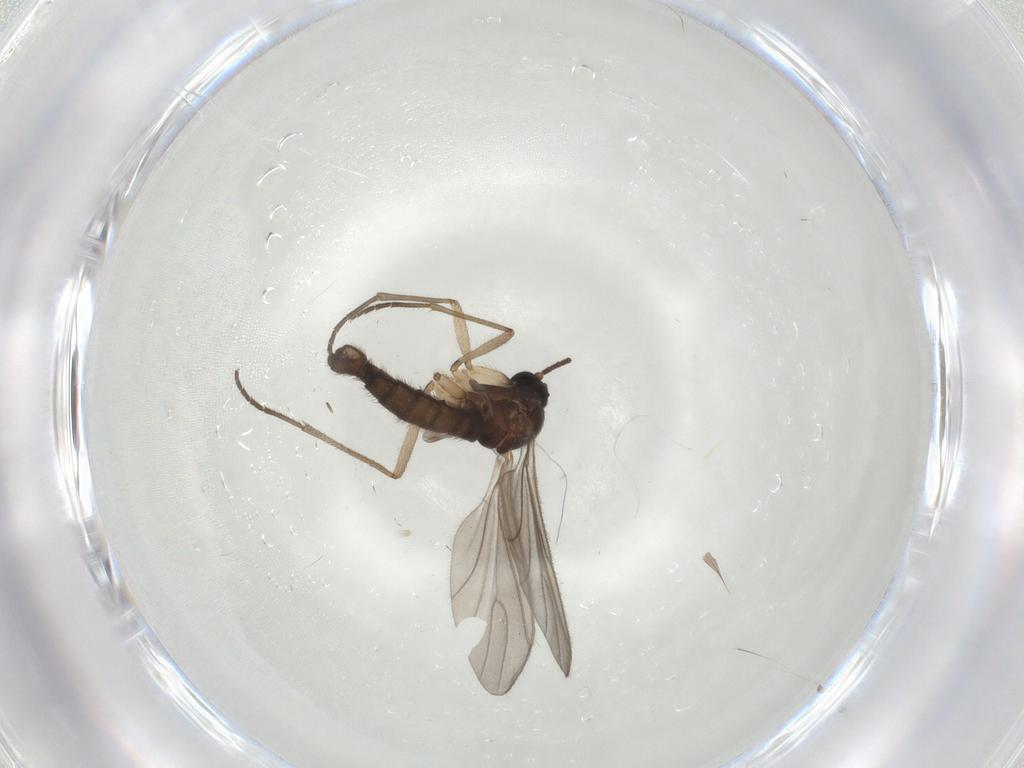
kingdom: Animalia
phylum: Arthropoda
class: Insecta
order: Diptera
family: Sciaridae
